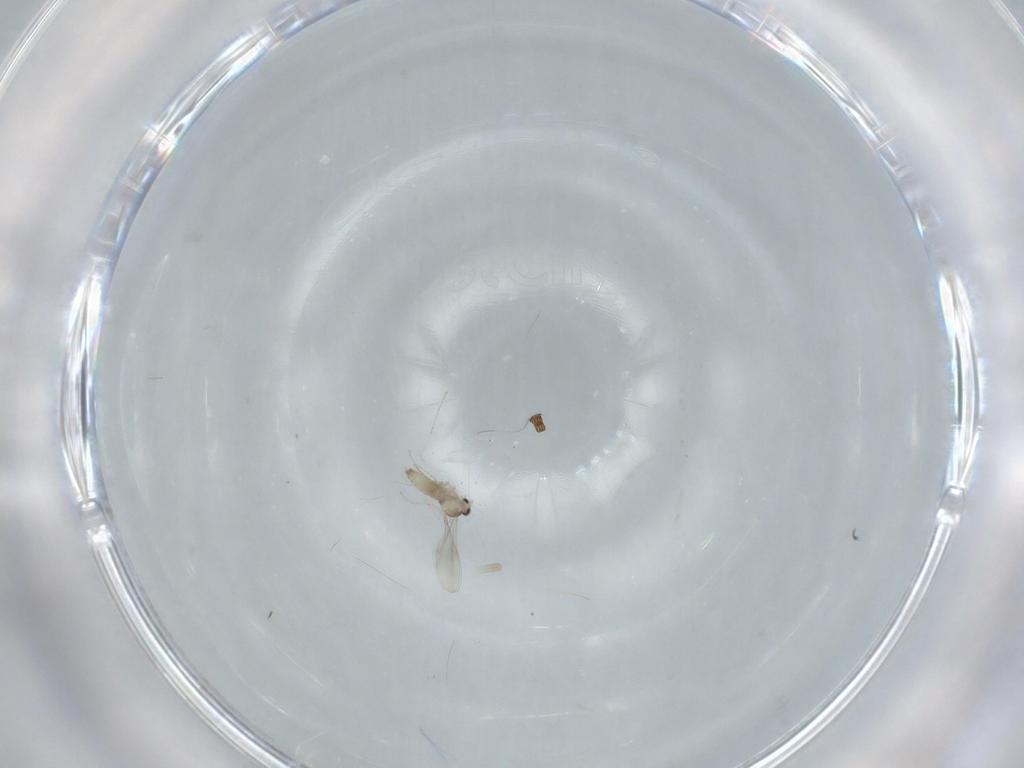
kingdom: Animalia
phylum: Arthropoda
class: Insecta
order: Diptera
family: Cecidomyiidae
